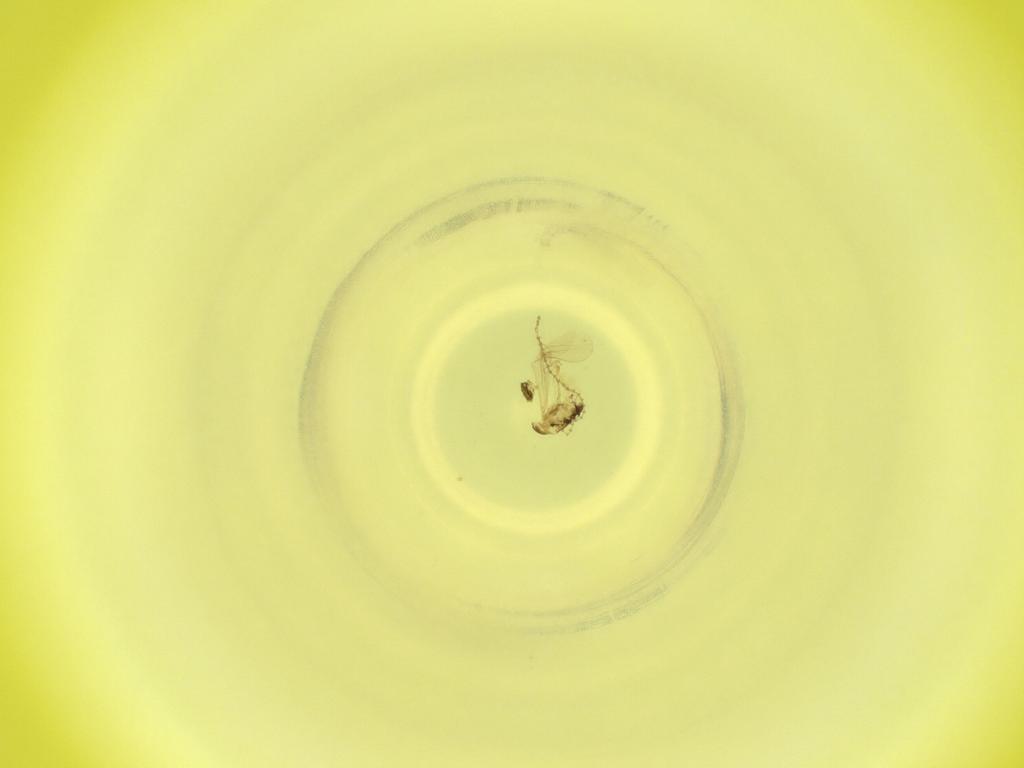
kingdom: Animalia
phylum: Arthropoda
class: Insecta
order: Diptera
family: Cecidomyiidae
